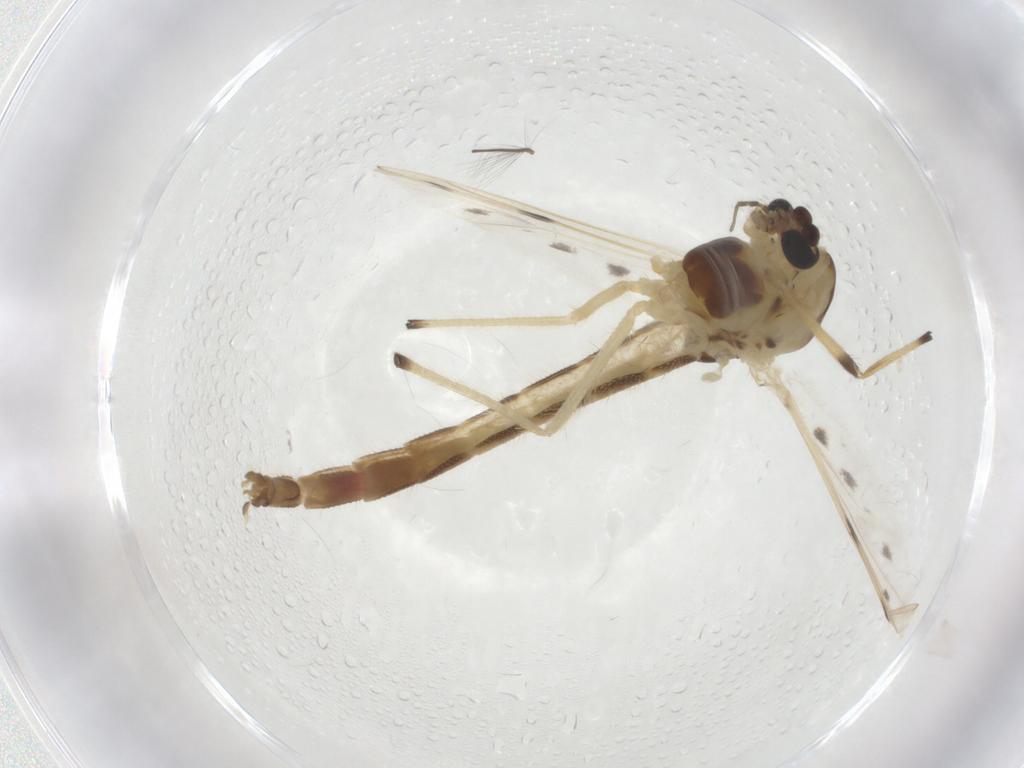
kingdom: Animalia
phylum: Arthropoda
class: Insecta
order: Diptera
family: Chironomidae
